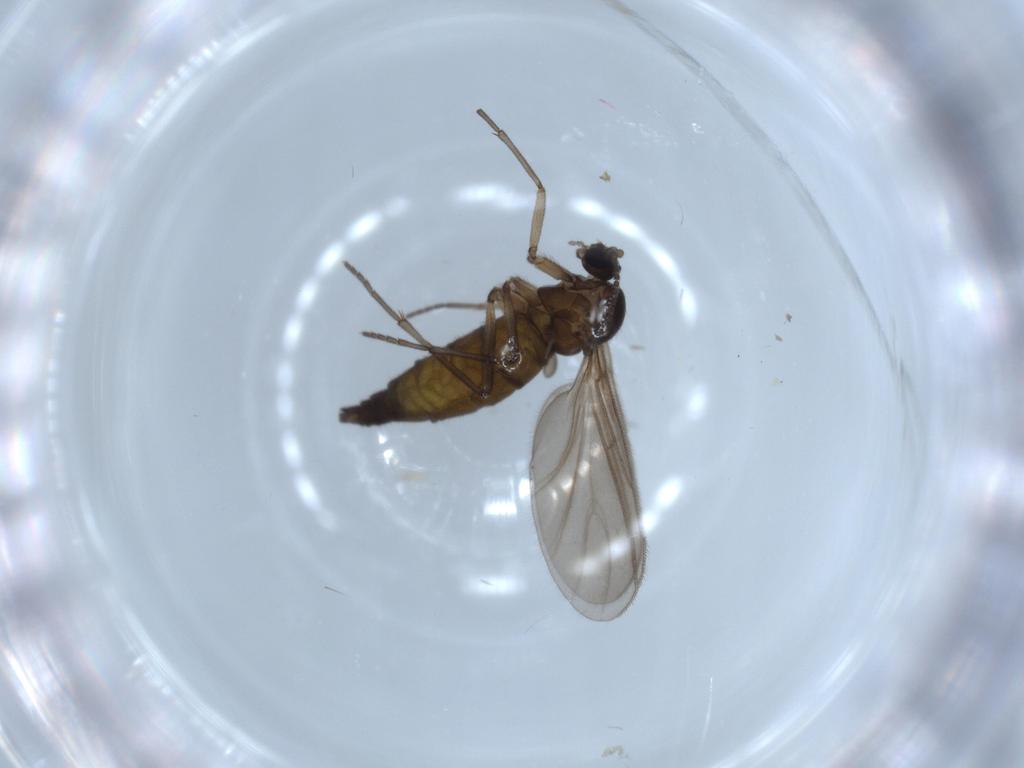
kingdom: Animalia
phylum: Arthropoda
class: Insecta
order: Diptera
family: Sciaridae
